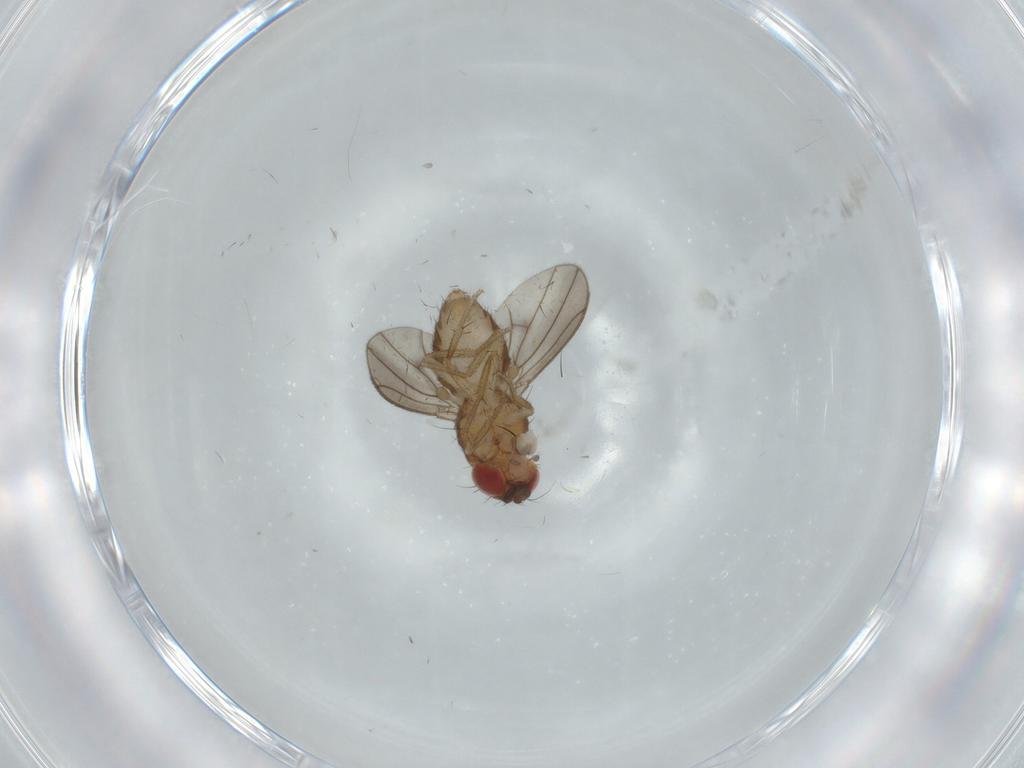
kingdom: Animalia
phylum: Arthropoda
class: Insecta
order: Diptera
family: Drosophilidae
